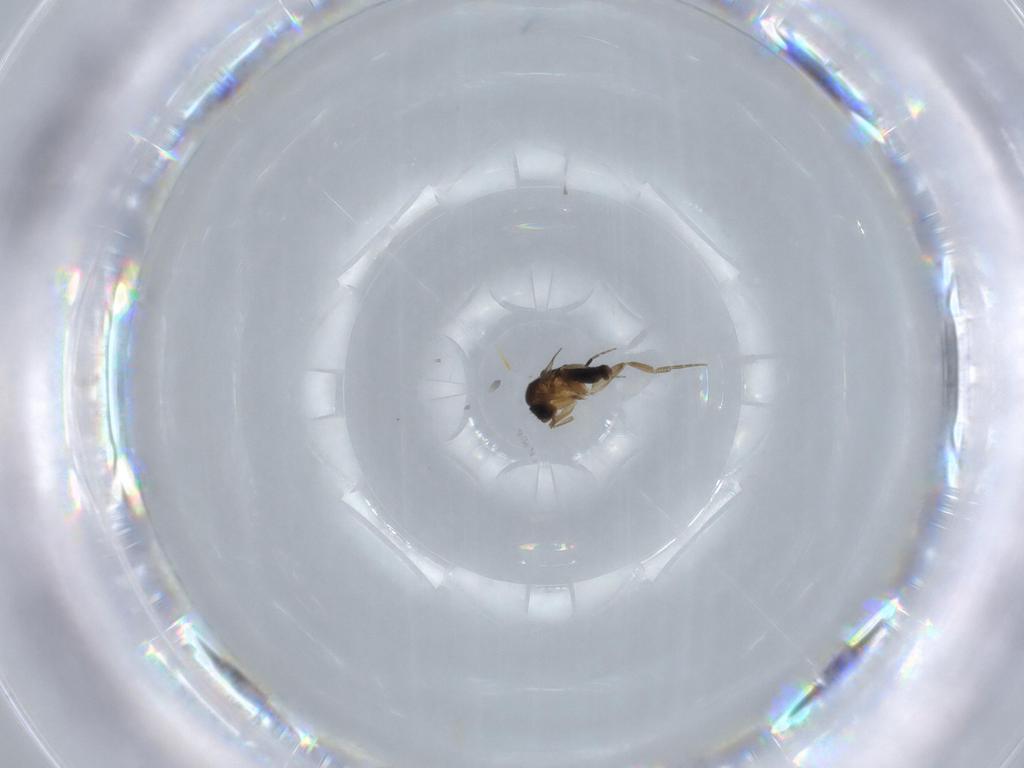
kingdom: Animalia
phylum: Arthropoda
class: Insecta
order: Diptera
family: Phoridae
